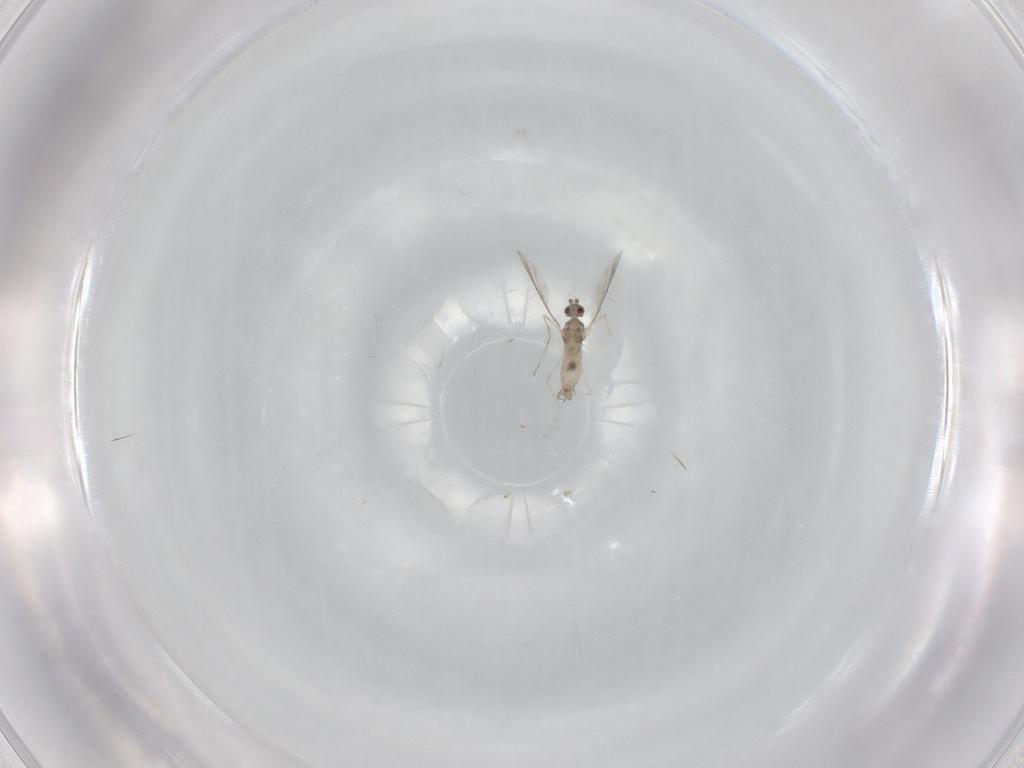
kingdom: Animalia
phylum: Arthropoda
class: Insecta
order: Diptera
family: Cecidomyiidae
